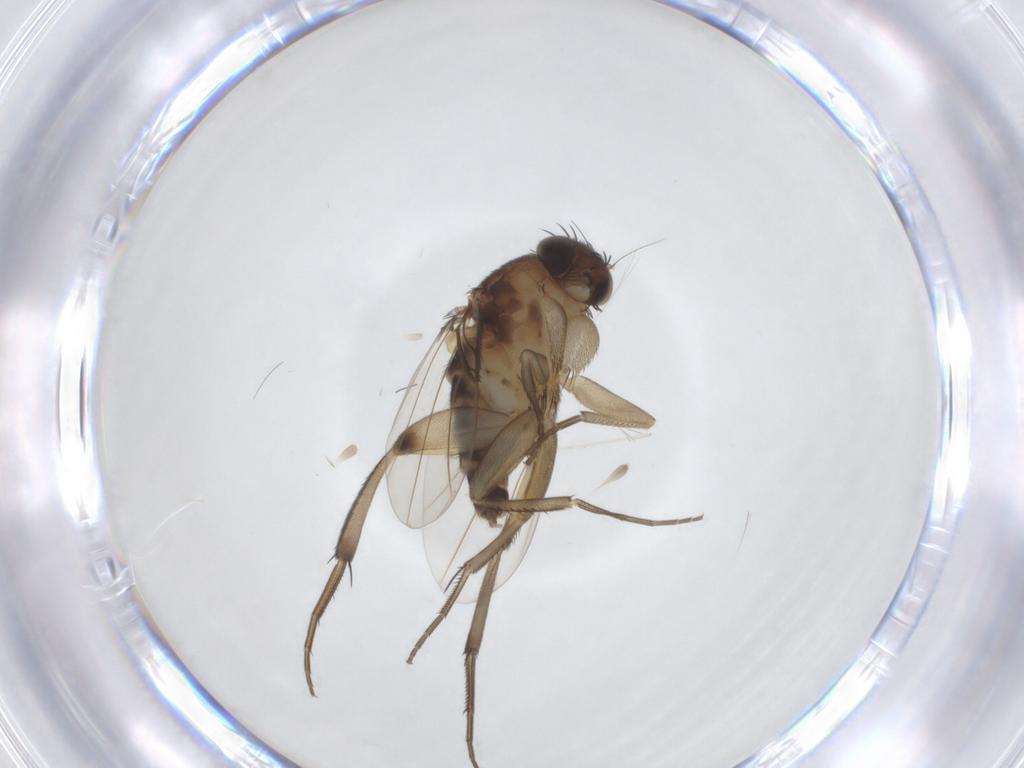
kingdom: Animalia
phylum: Arthropoda
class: Insecta
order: Diptera
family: Phoridae
